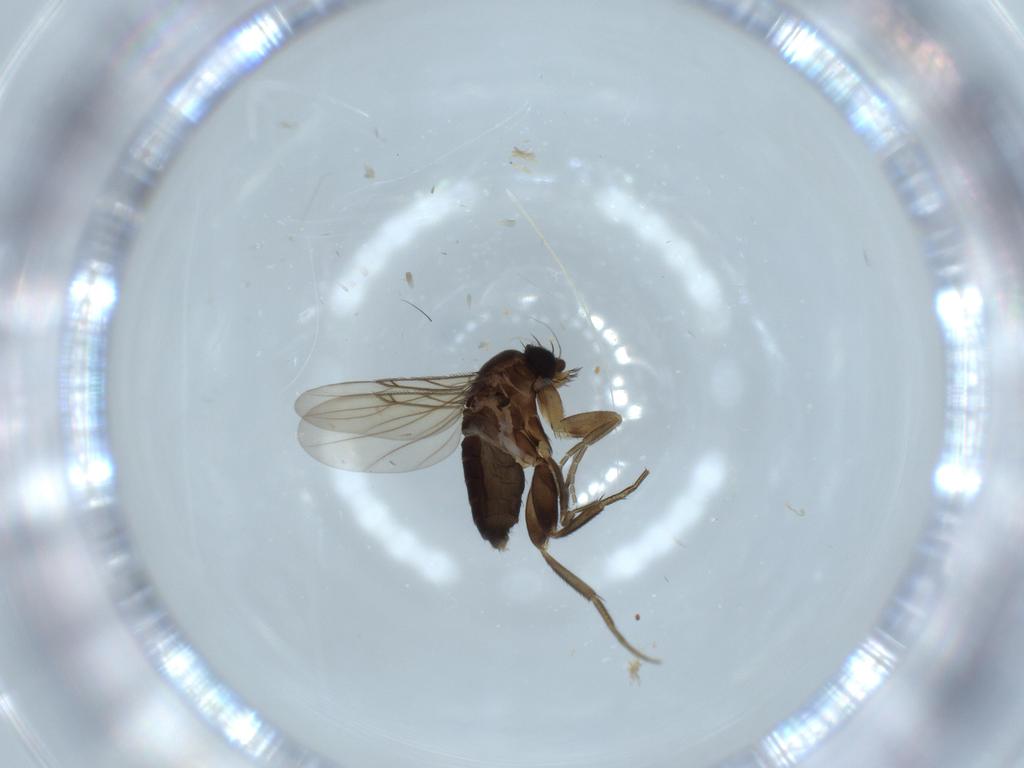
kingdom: Animalia
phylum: Arthropoda
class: Insecta
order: Diptera
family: Phoridae
